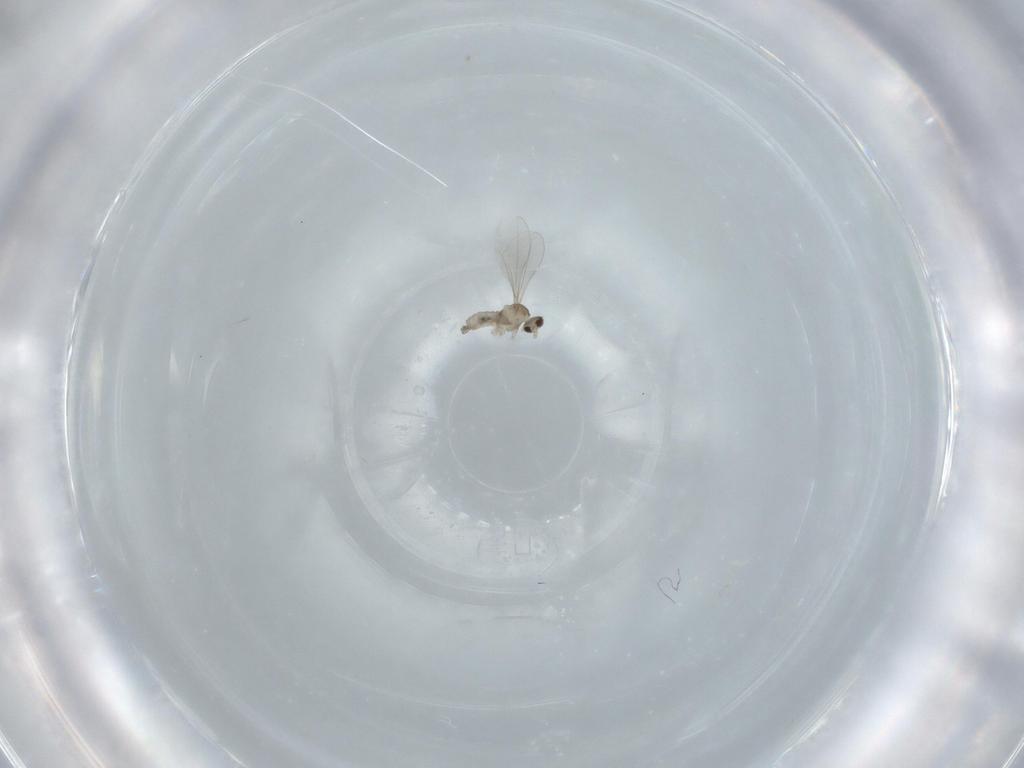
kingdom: Animalia
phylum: Arthropoda
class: Insecta
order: Diptera
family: Cecidomyiidae
